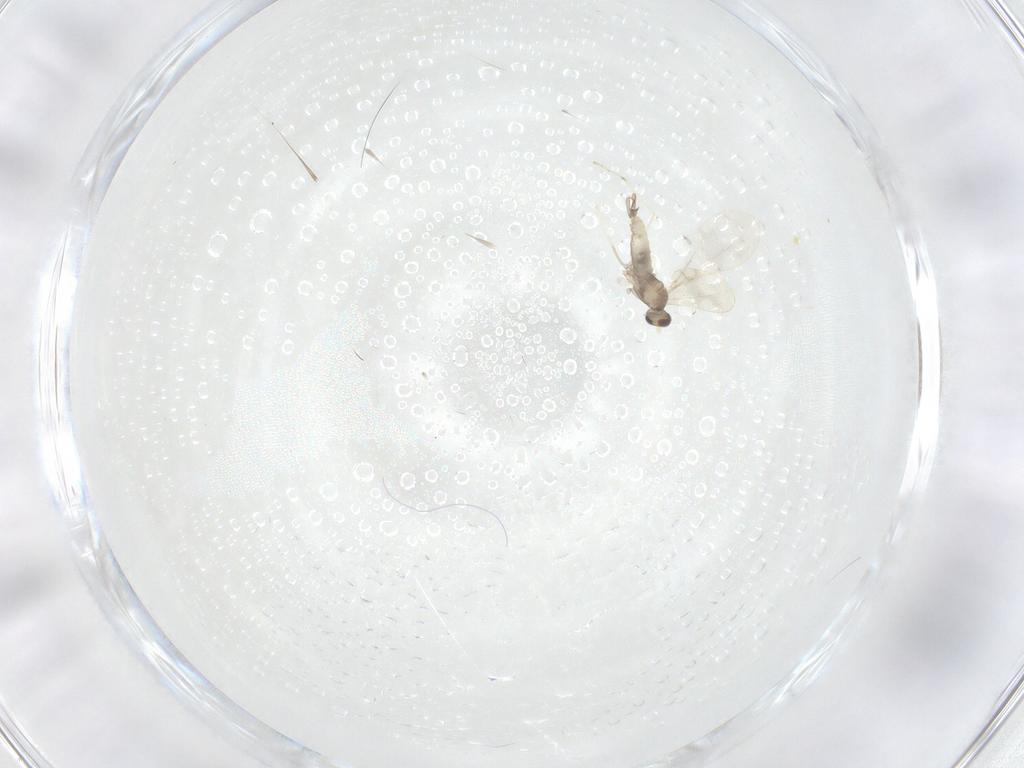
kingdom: Animalia
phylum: Arthropoda
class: Insecta
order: Diptera
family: Cecidomyiidae
